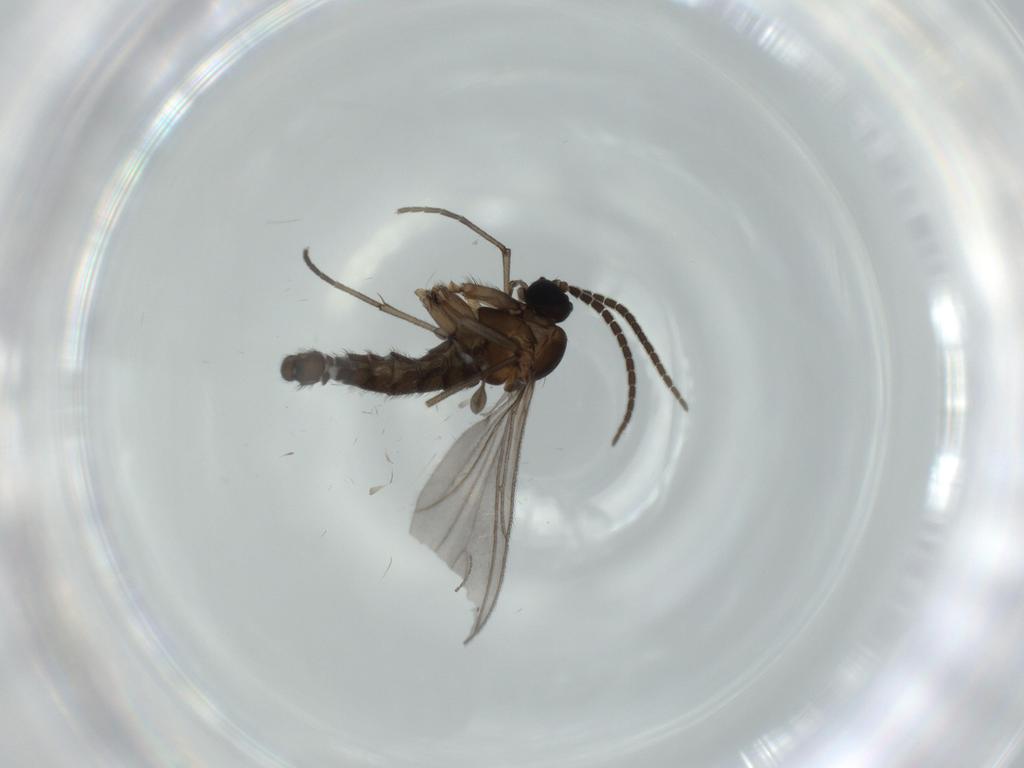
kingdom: Animalia
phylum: Arthropoda
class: Insecta
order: Diptera
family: Sciaridae
